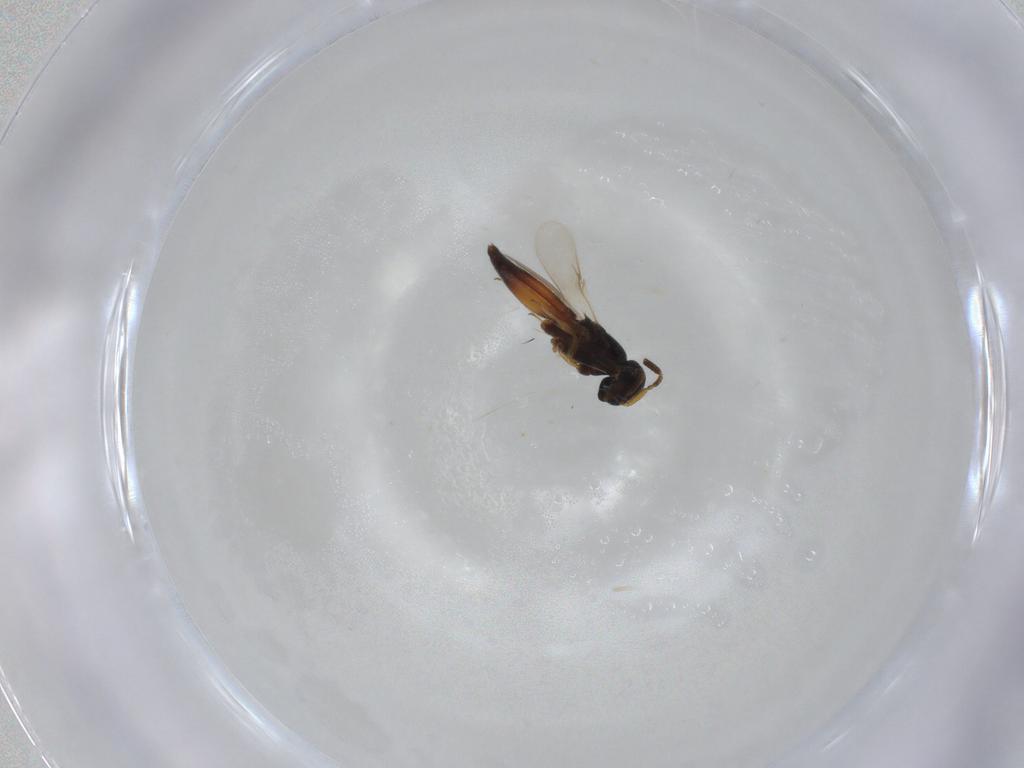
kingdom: Animalia
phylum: Arthropoda
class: Insecta
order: Hymenoptera
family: Scelionidae
